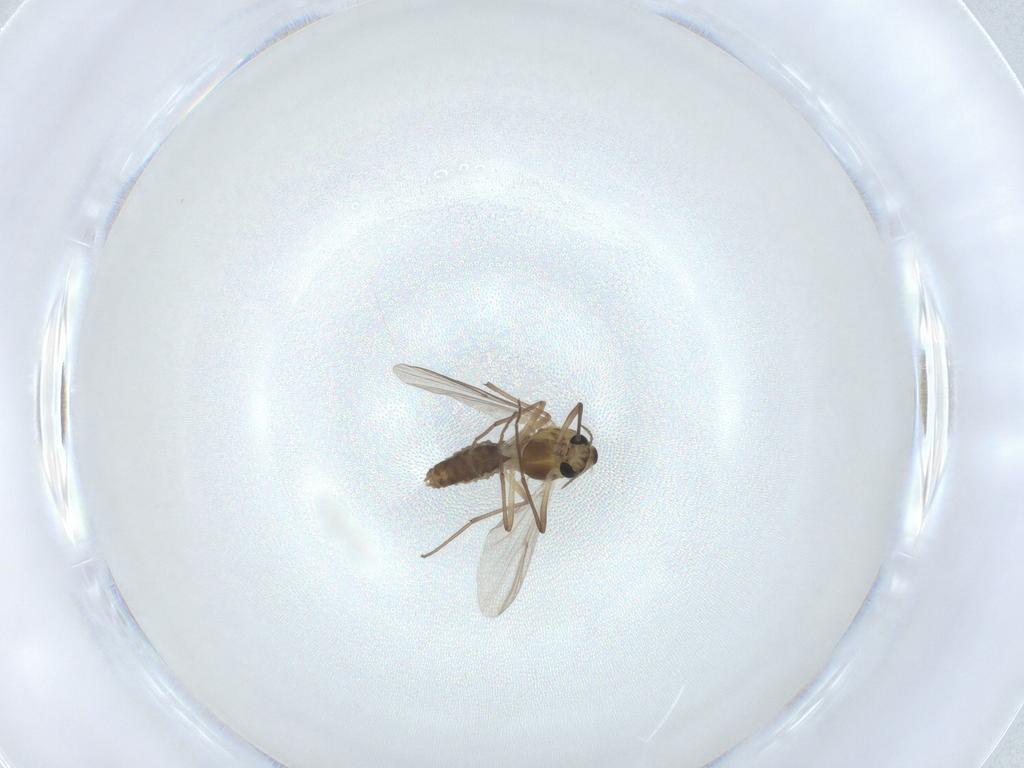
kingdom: Animalia
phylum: Arthropoda
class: Insecta
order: Diptera
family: Chironomidae
